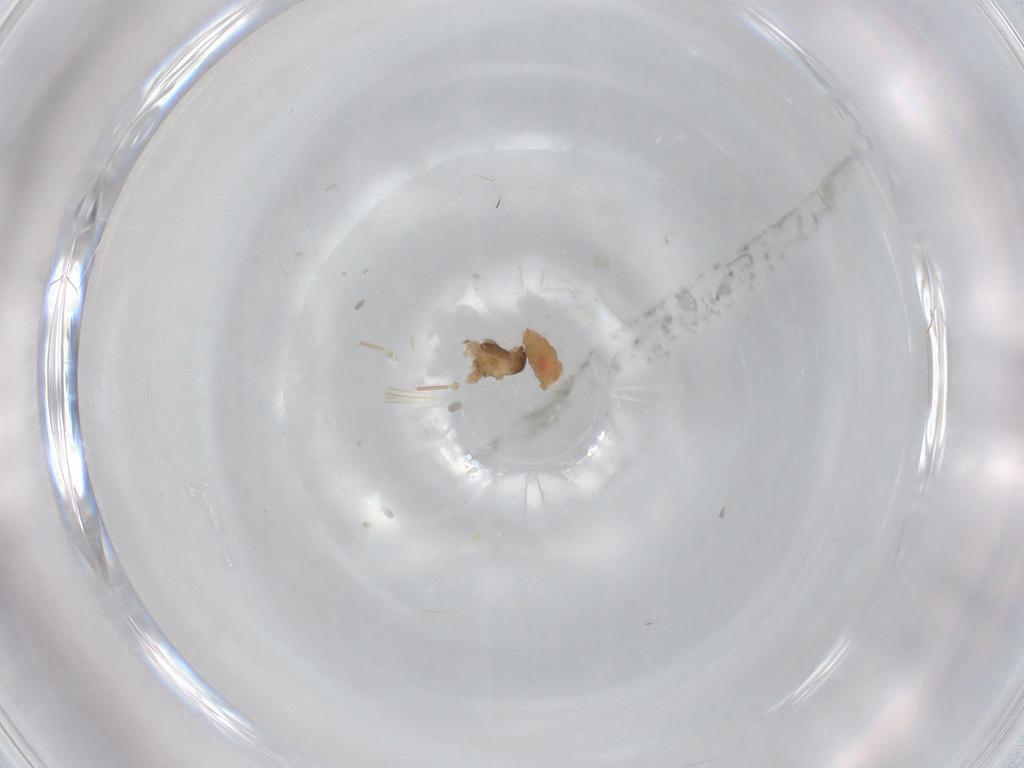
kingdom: Animalia
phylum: Arthropoda
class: Insecta
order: Diptera
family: Cecidomyiidae
